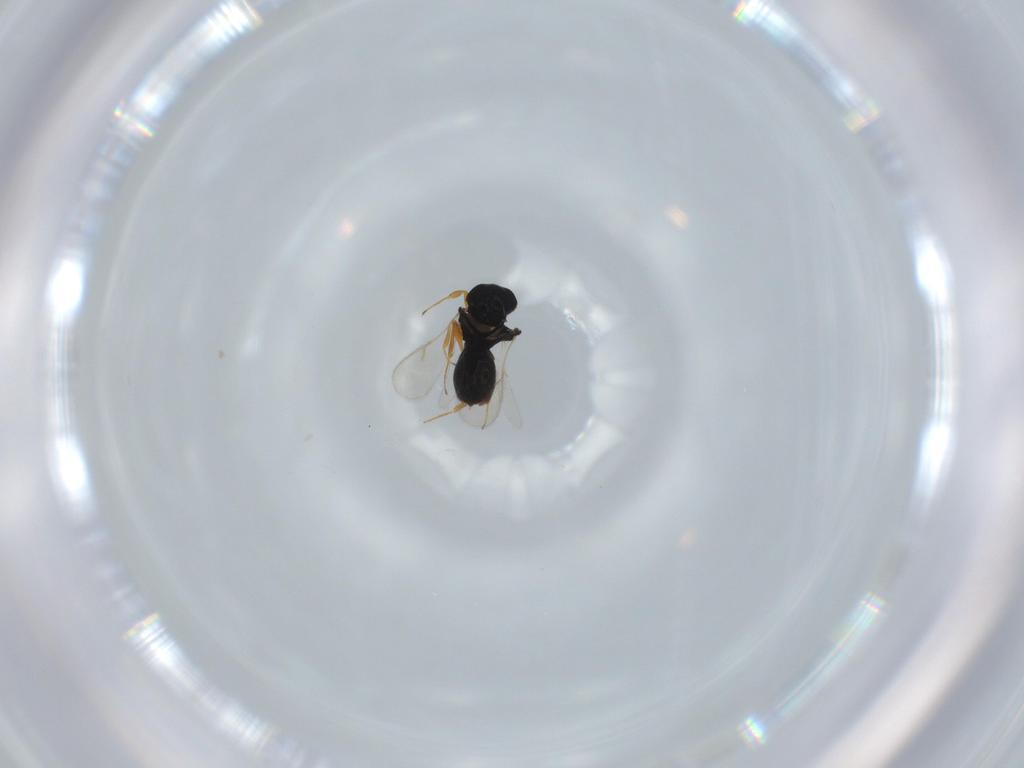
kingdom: Animalia
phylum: Arthropoda
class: Insecta
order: Hymenoptera
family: Scelionidae
